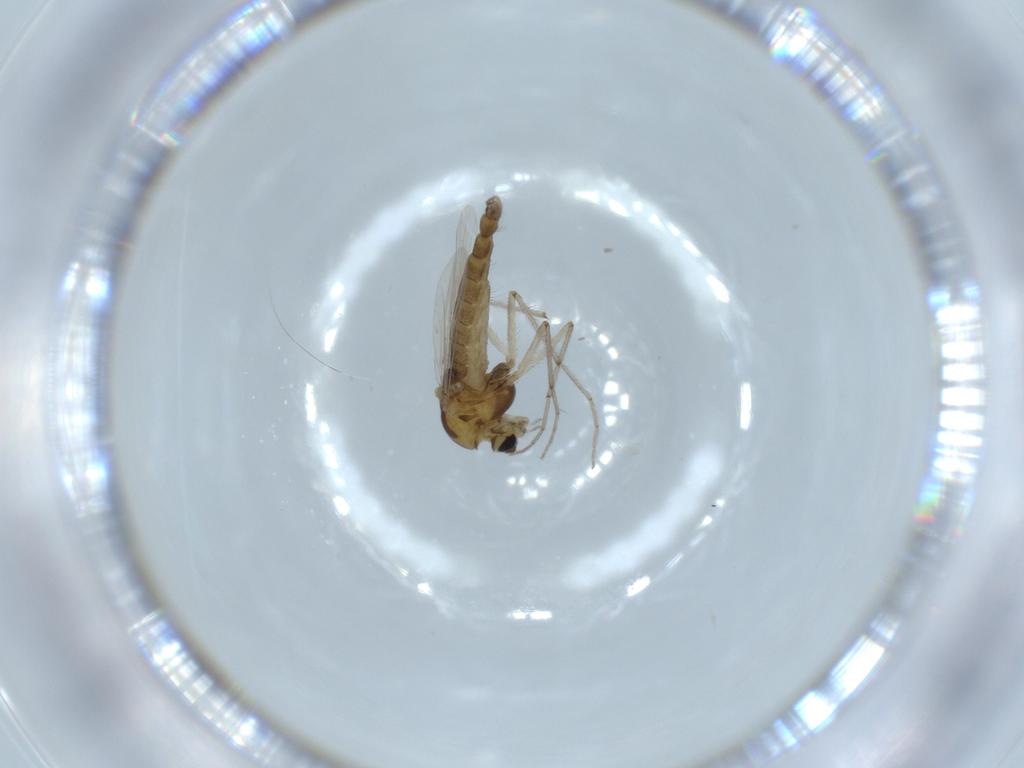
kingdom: Animalia
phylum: Arthropoda
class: Insecta
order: Diptera
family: Chironomidae
